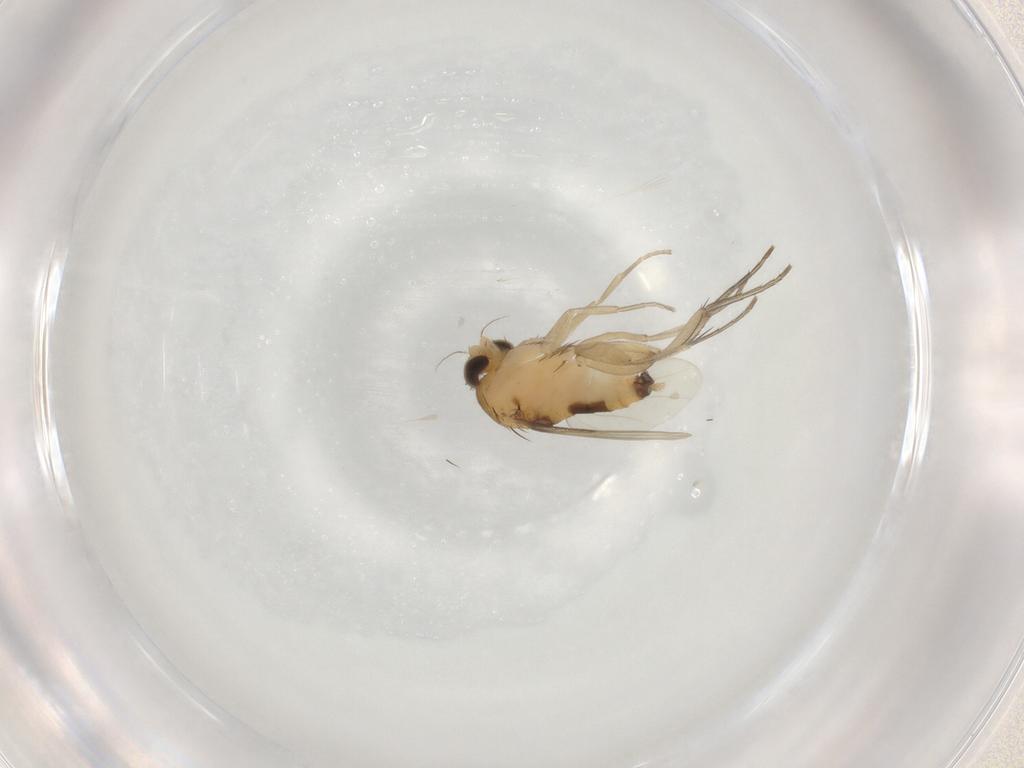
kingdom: Animalia
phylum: Arthropoda
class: Insecta
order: Diptera
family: Phoridae
